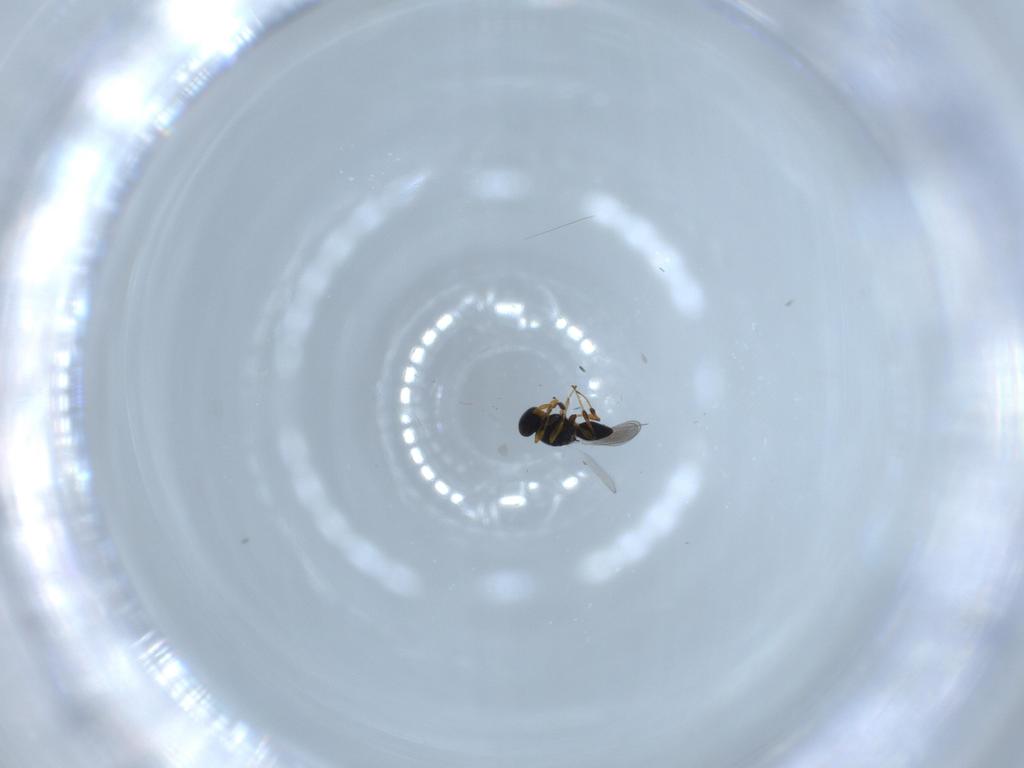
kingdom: Animalia
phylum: Arthropoda
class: Insecta
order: Hymenoptera
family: Platygastridae
